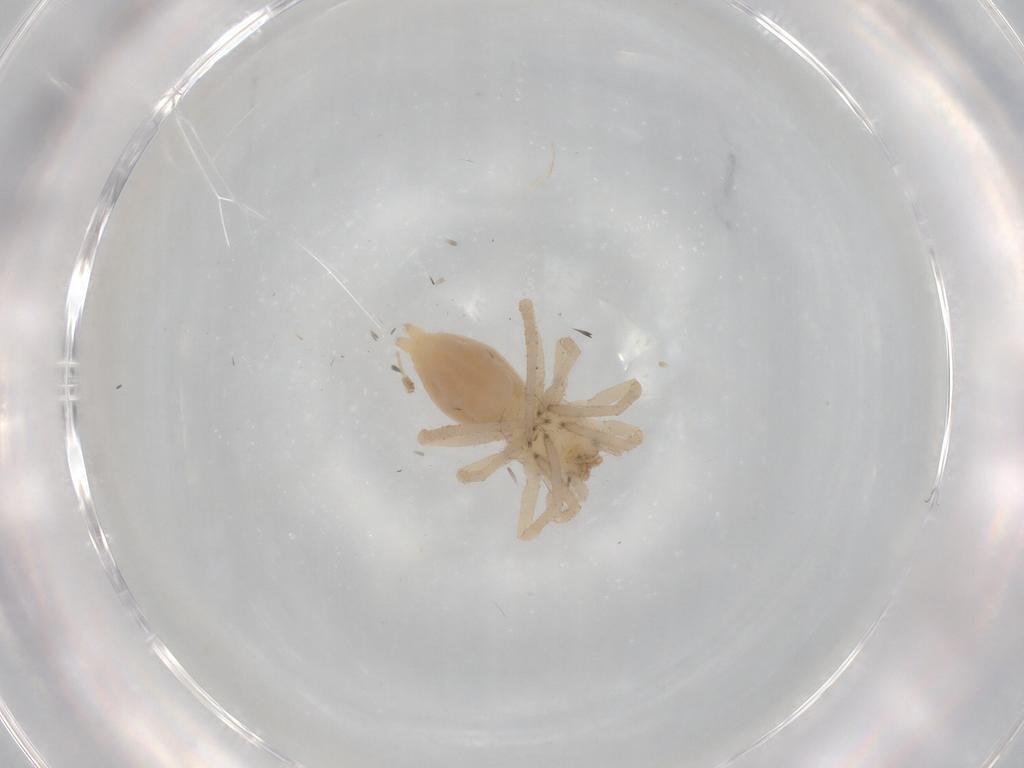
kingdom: Animalia
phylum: Arthropoda
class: Arachnida
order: Araneae
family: Clubionidae
